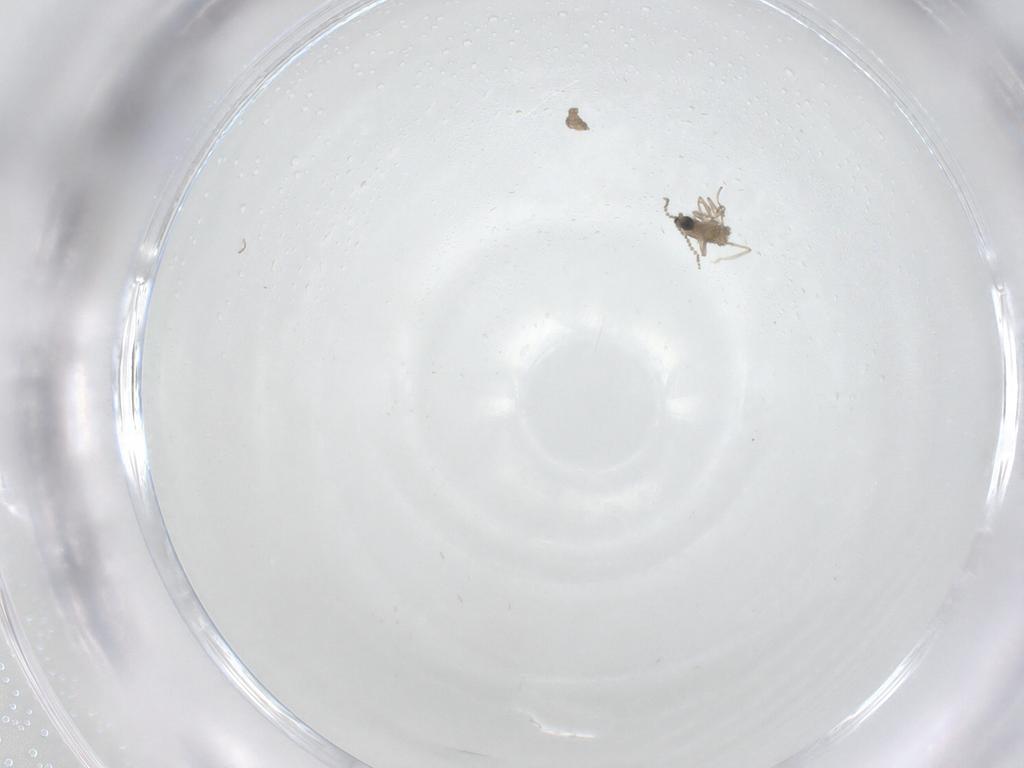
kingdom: Animalia
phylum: Arthropoda
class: Insecta
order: Diptera
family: Cecidomyiidae
